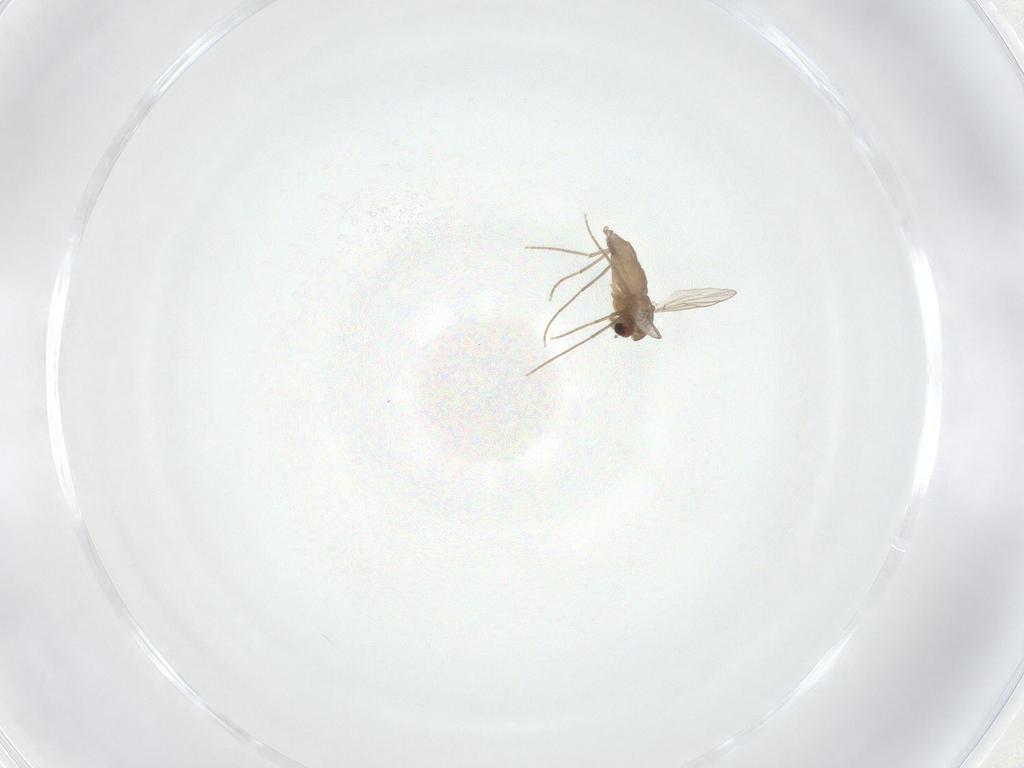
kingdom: Animalia
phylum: Arthropoda
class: Insecta
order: Diptera
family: Chironomidae
